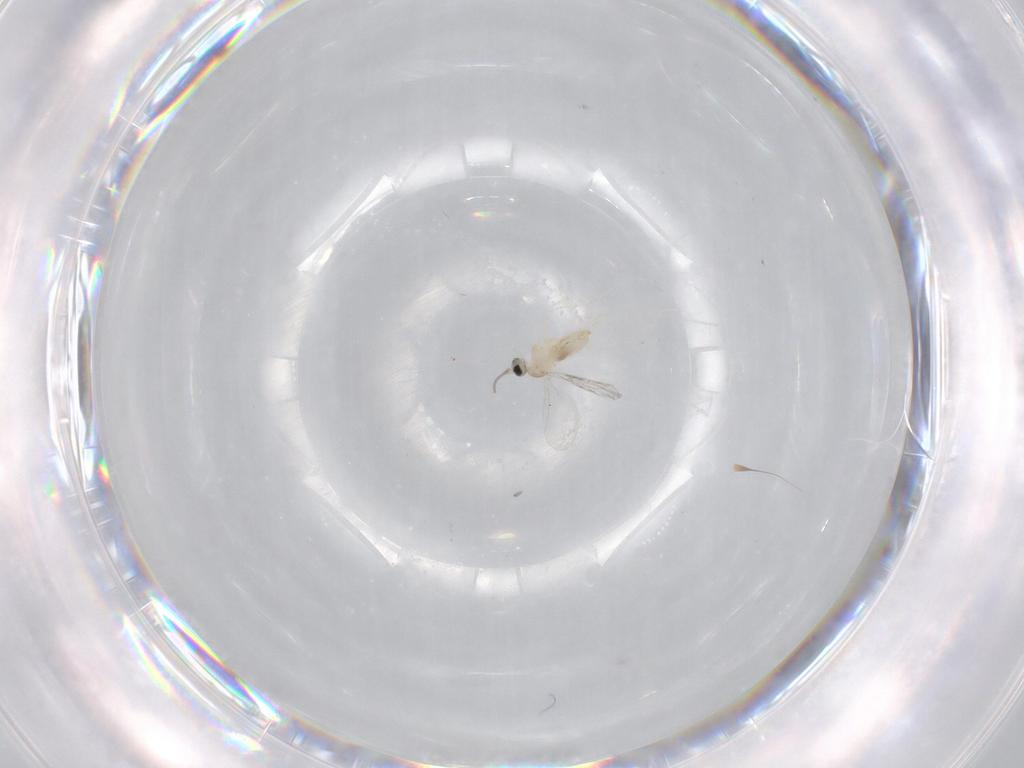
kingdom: Animalia
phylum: Arthropoda
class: Insecta
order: Diptera
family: Cecidomyiidae
